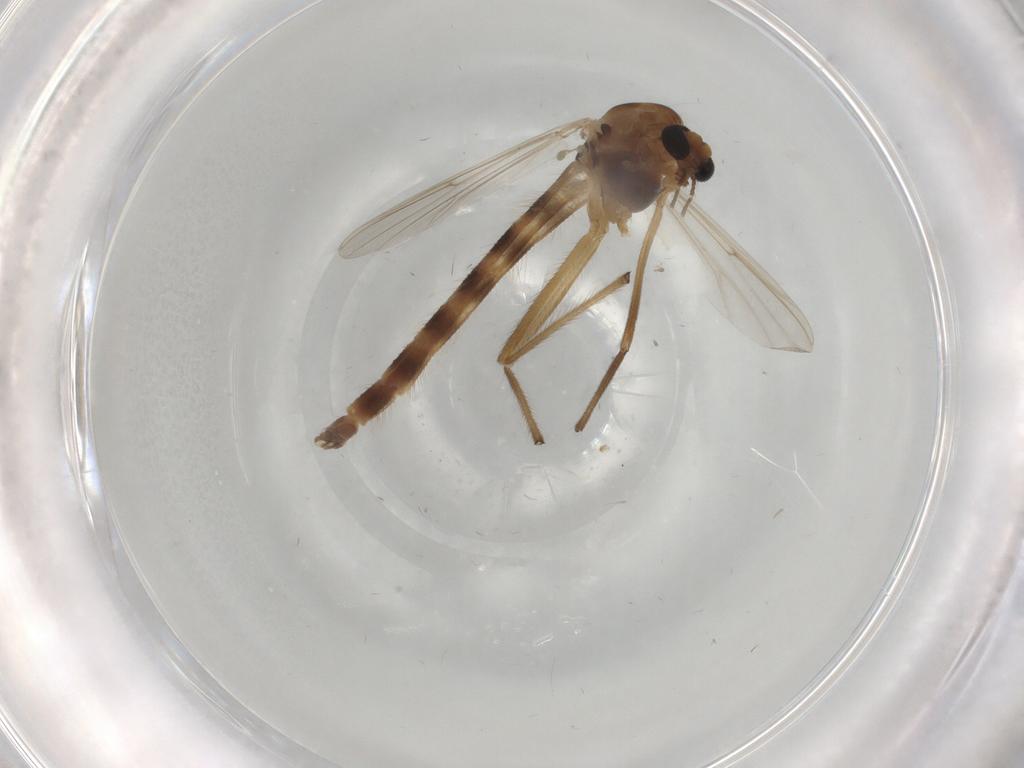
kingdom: Animalia
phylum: Arthropoda
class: Insecta
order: Diptera
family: Chironomidae
